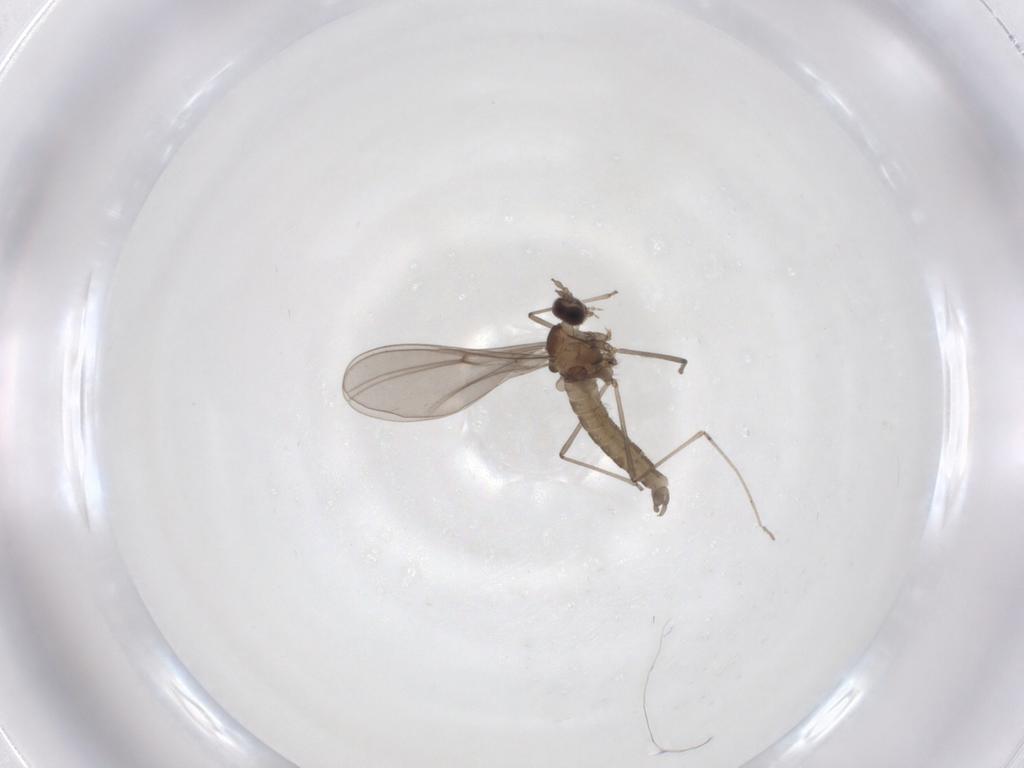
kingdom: Animalia
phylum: Arthropoda
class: Insecta
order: Diptera
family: Cecidomyiidae
